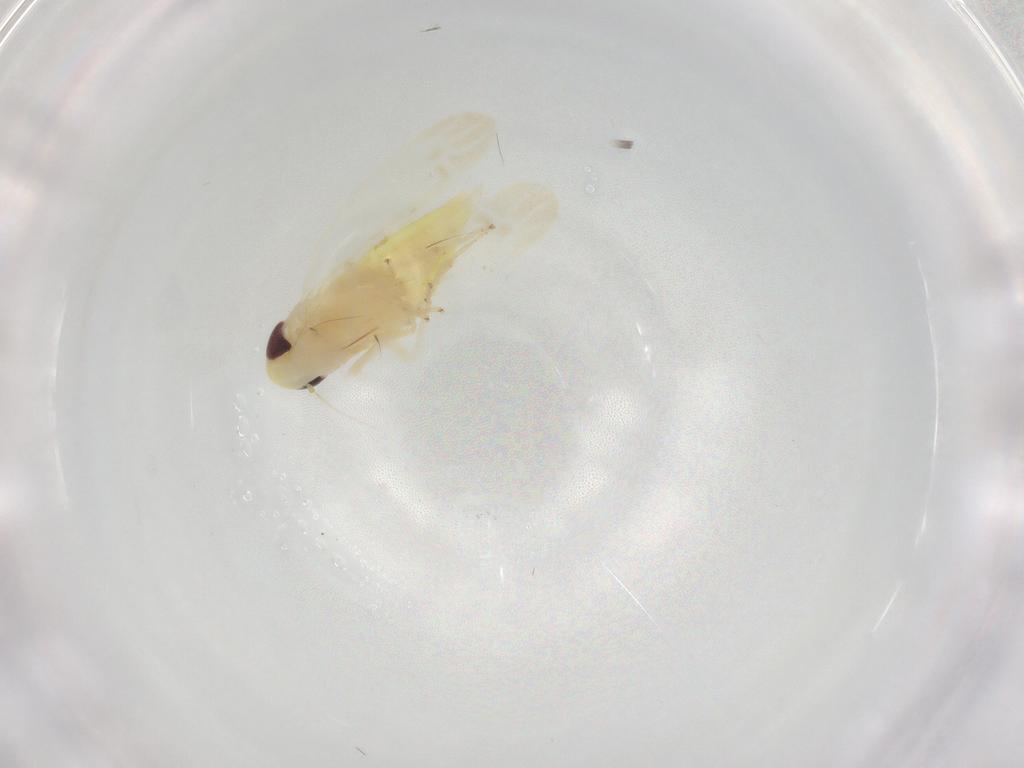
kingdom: Animalia
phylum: Arthropoda
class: Insecta
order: Hemiptera
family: Cicadellidae
